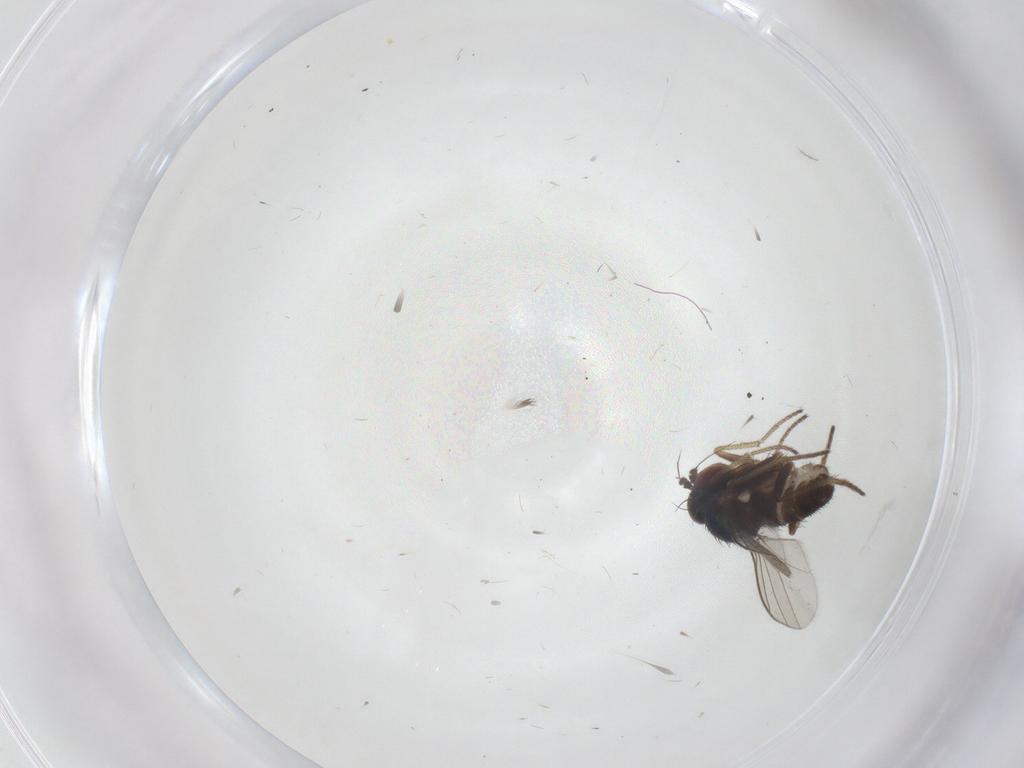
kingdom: Animalia
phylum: Arthropoda
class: Insecta
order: Diptera
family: Dolichopodidae
